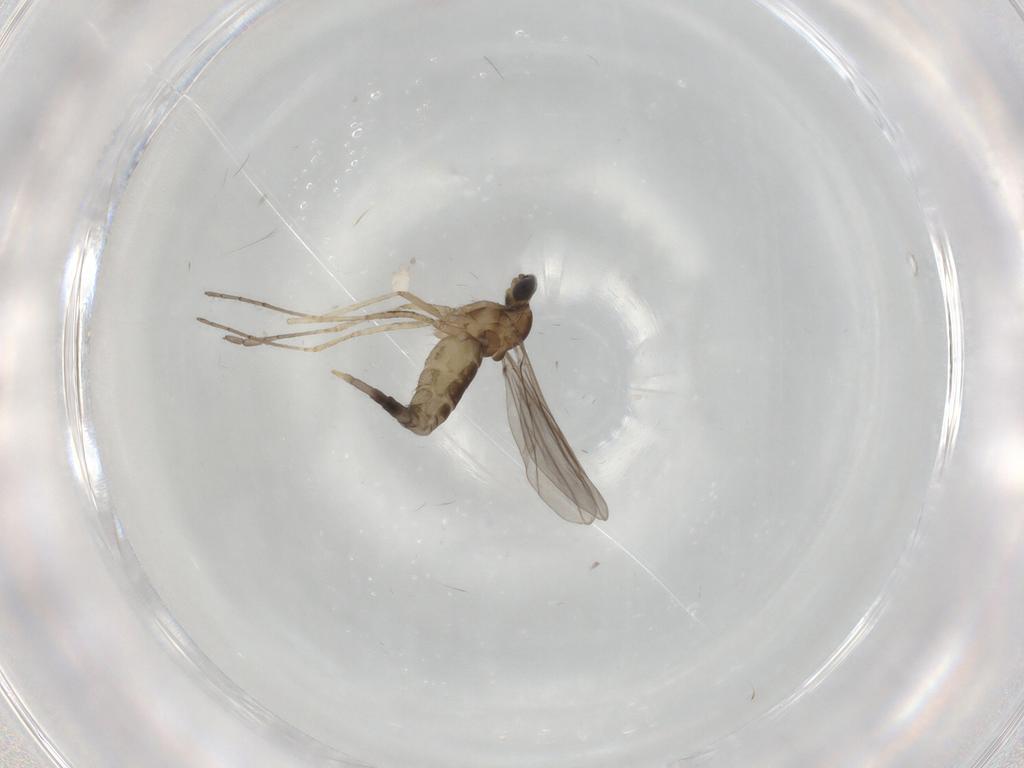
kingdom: Animalia
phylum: Arthropoda
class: Insecta
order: Diptera
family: Cecidomyiidae
